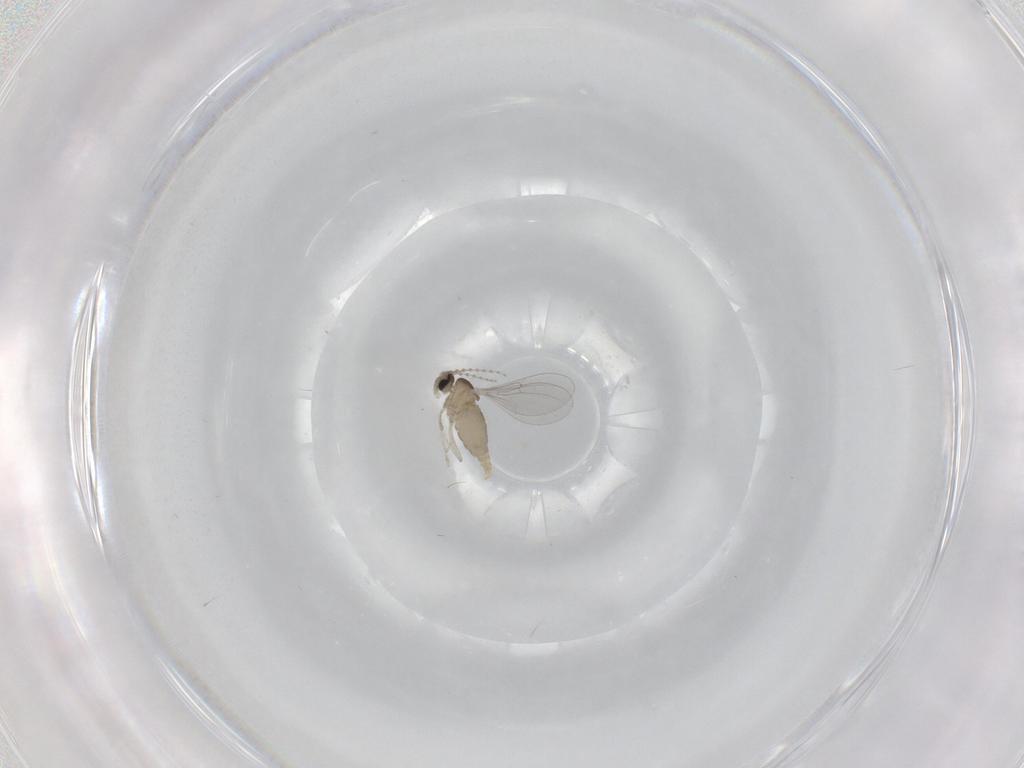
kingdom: Animalia
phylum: Arthropoda
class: Insecta
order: Diptera
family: Cecidomyiidae
